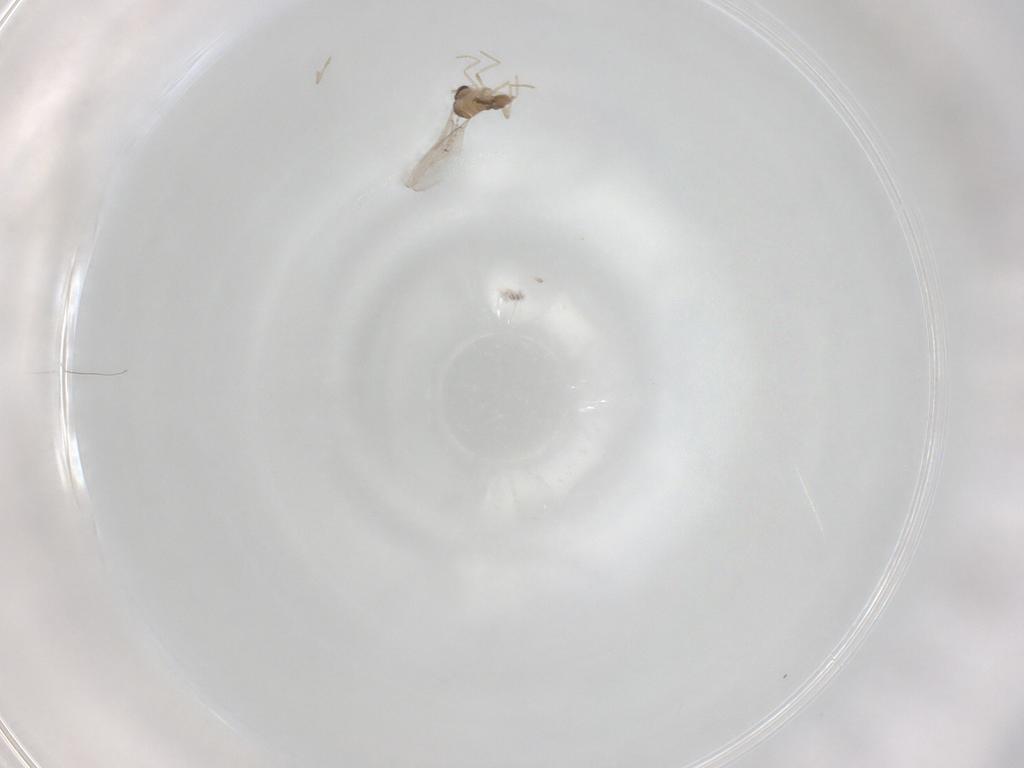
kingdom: Animalia
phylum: Arthropoda
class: Insecta
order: Diptera
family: Cecidomyiidae
